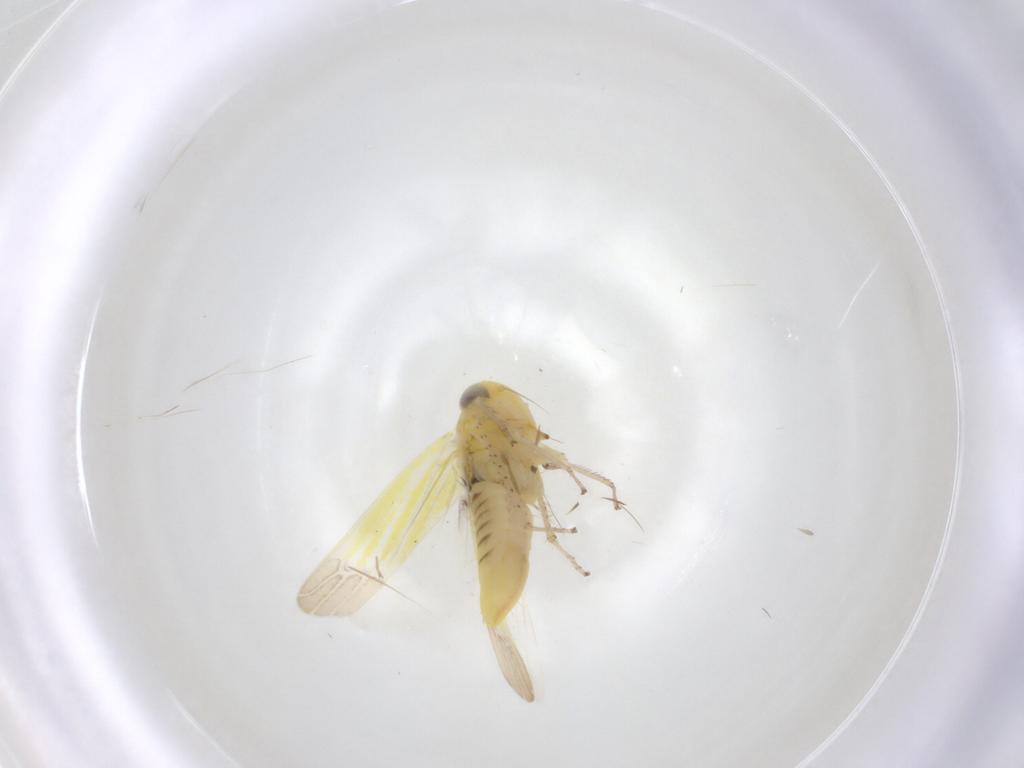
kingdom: Animalia
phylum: Arthropoda
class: Insecta
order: Hemiptera
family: Cicadellidae
